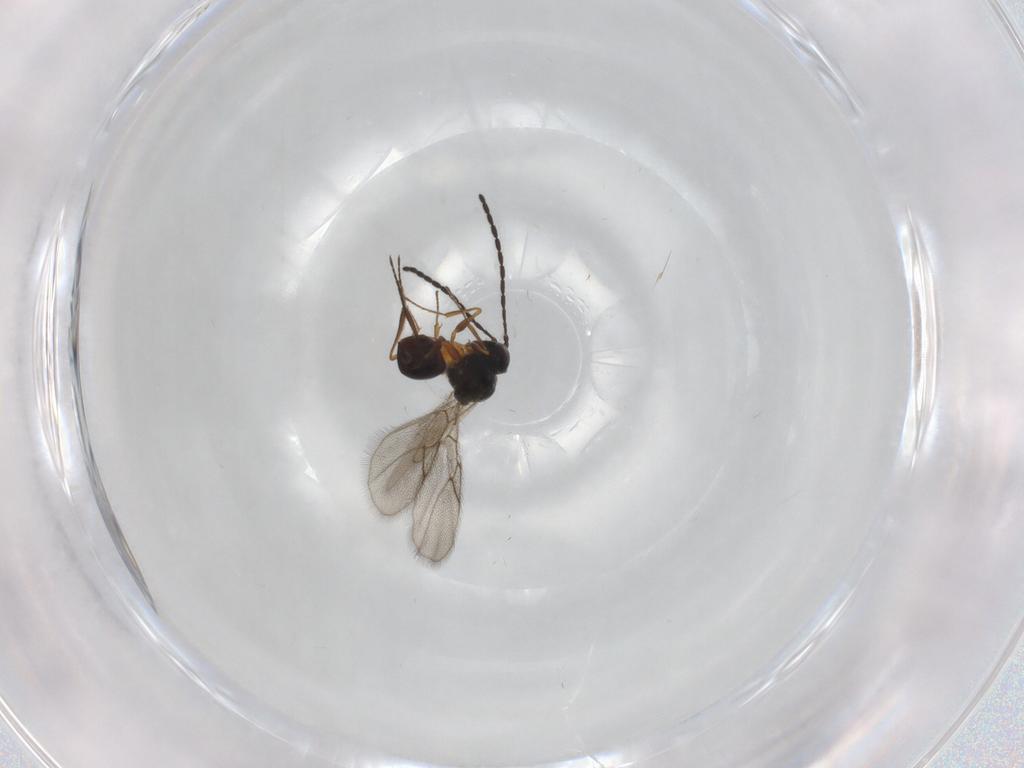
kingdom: Animalia
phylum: Arthropoda
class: Insecta
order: Hymenoptera
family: Figitidae
